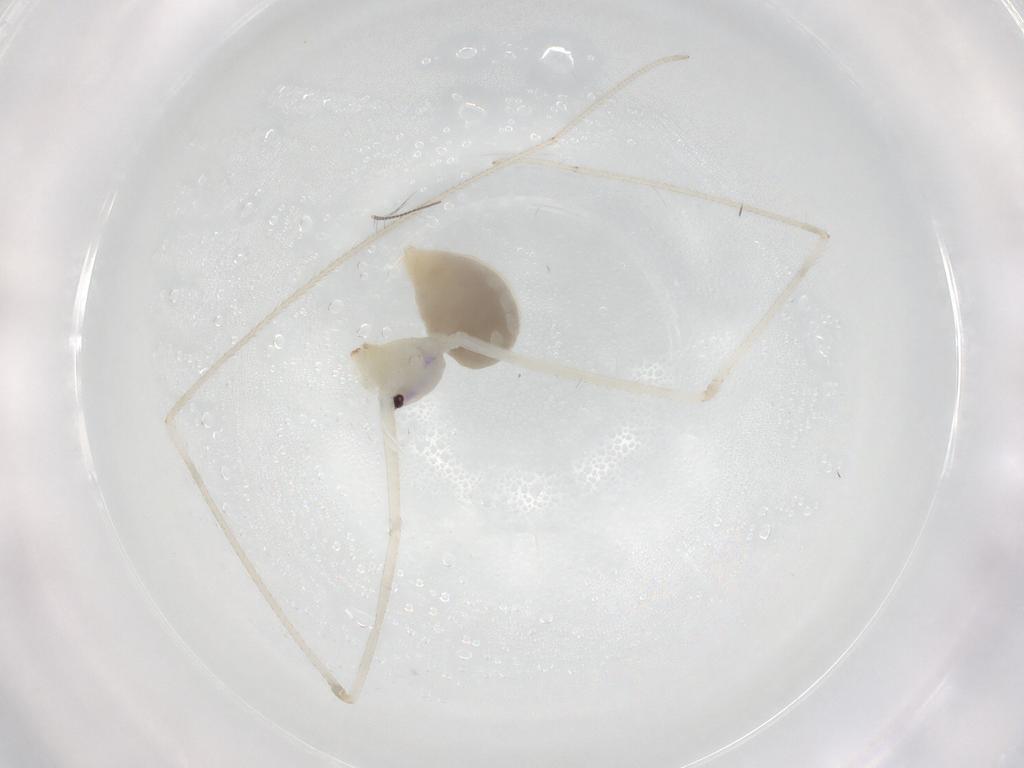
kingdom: Animalia
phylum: Arthropoda
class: Arachnida
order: Araneae
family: Pholcidae
